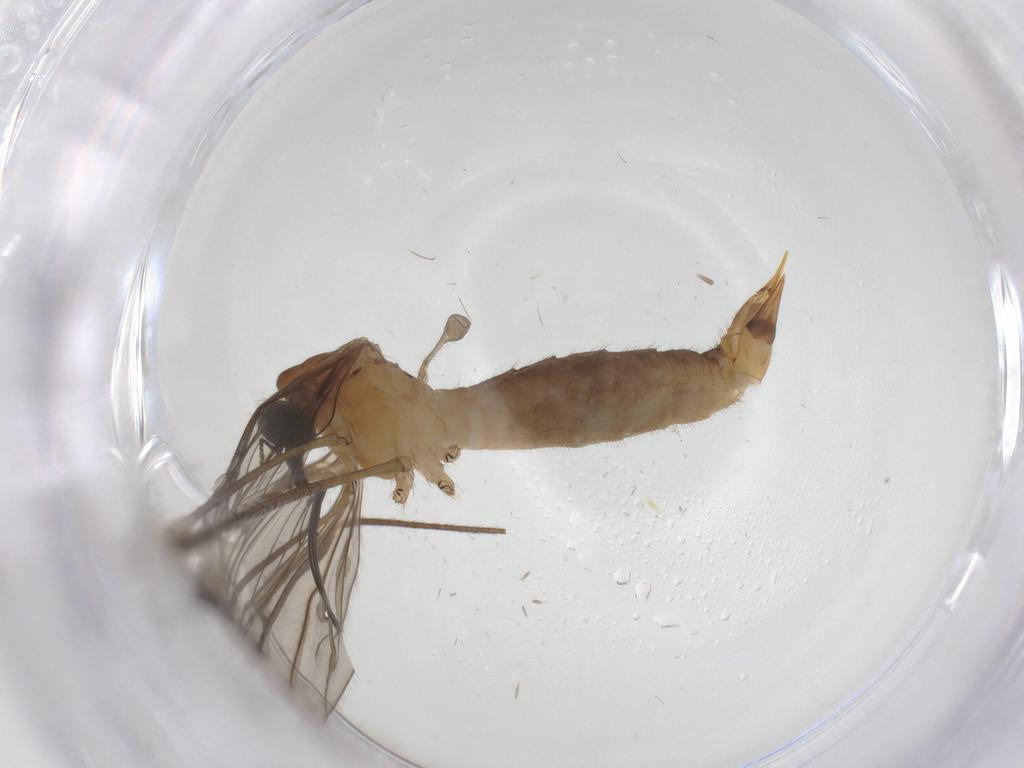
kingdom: Animalia
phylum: Arthropoda
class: Insecta
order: Diptera
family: Limoniidae
